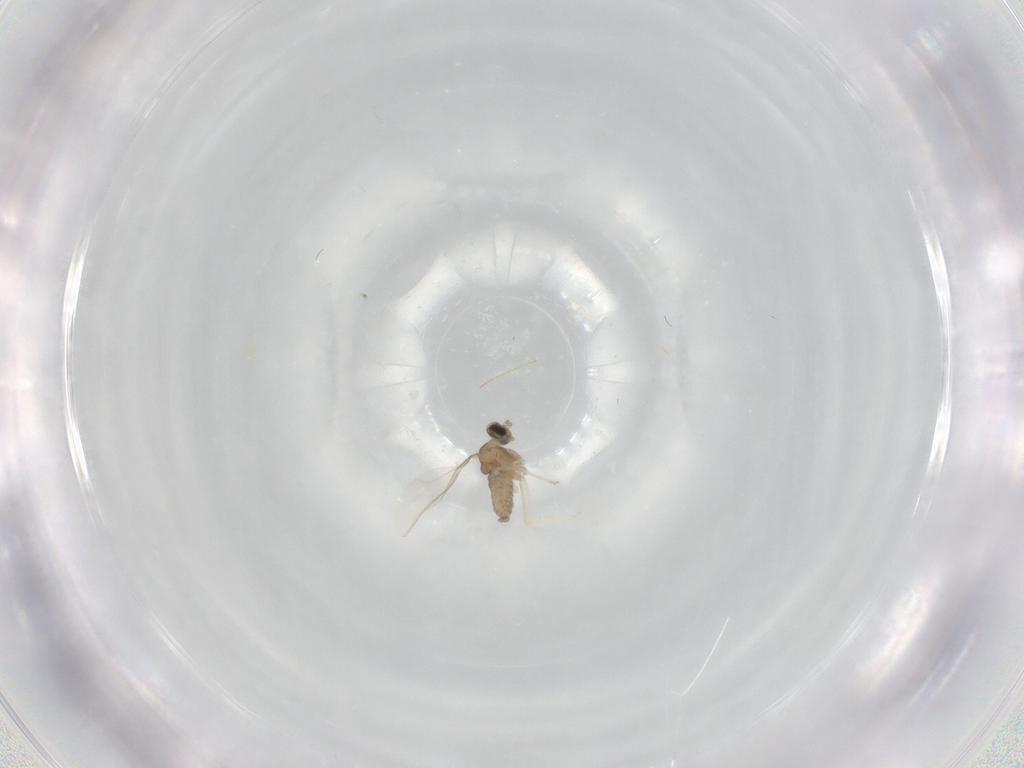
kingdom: Animalia
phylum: Arthropoda
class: Insecta
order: Diptera
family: Cecidomyiidae
